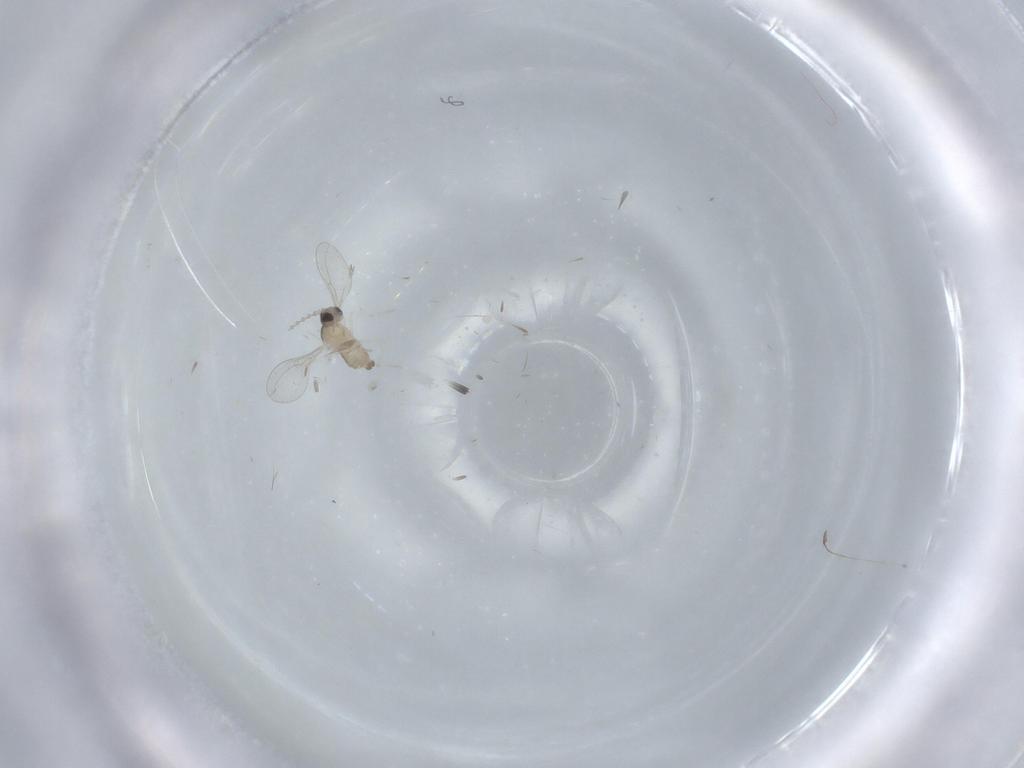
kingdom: Animalia
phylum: Arthropoda
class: Insecta
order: Diptera
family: Cecidomyiidae
